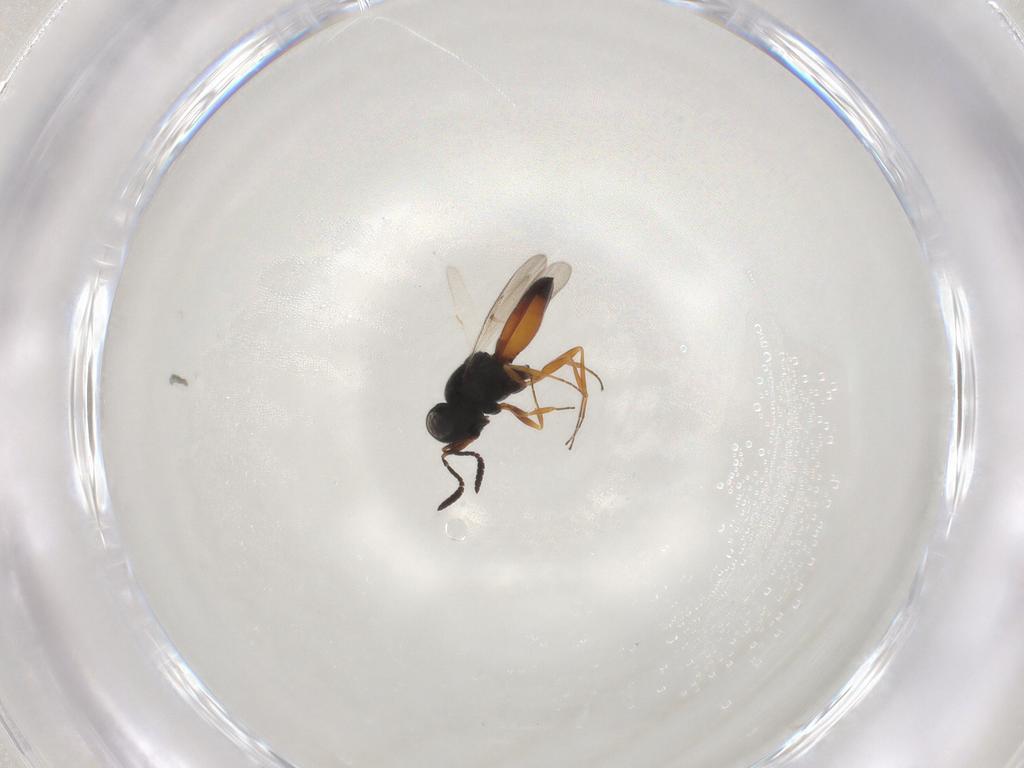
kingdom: Animalia
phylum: Arthropoda
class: Insecta
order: Hymenoptera
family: Scelionidae
